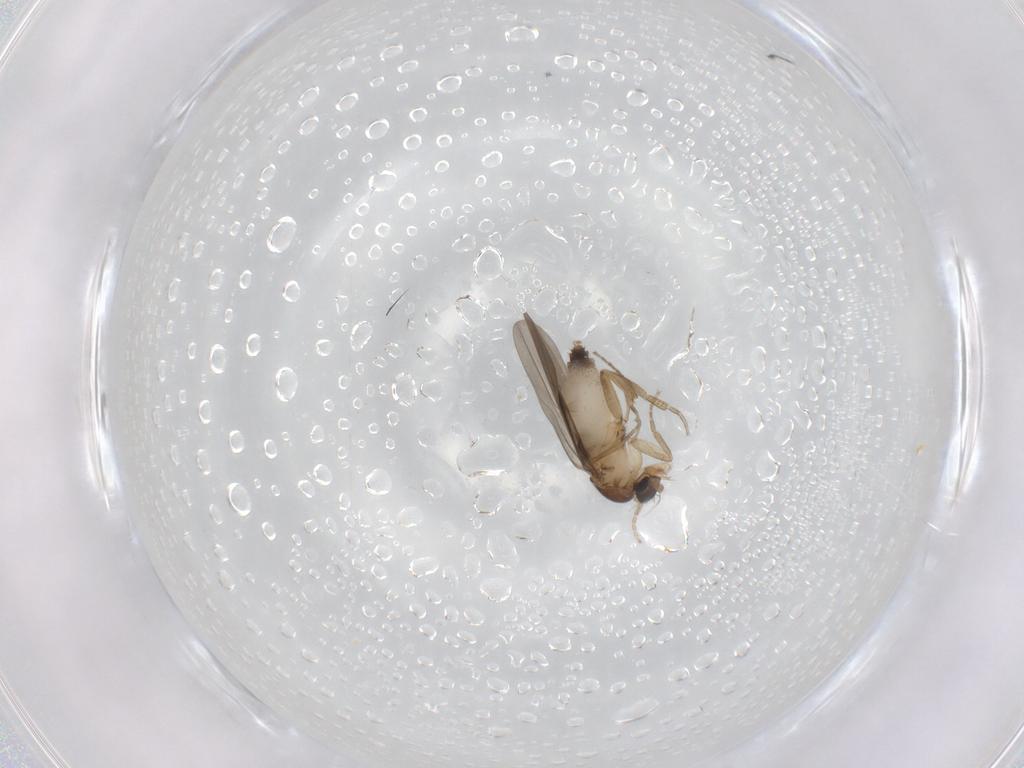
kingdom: Animalia
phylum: Arthropoda
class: Insecta
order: Diptera
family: Phoridae
